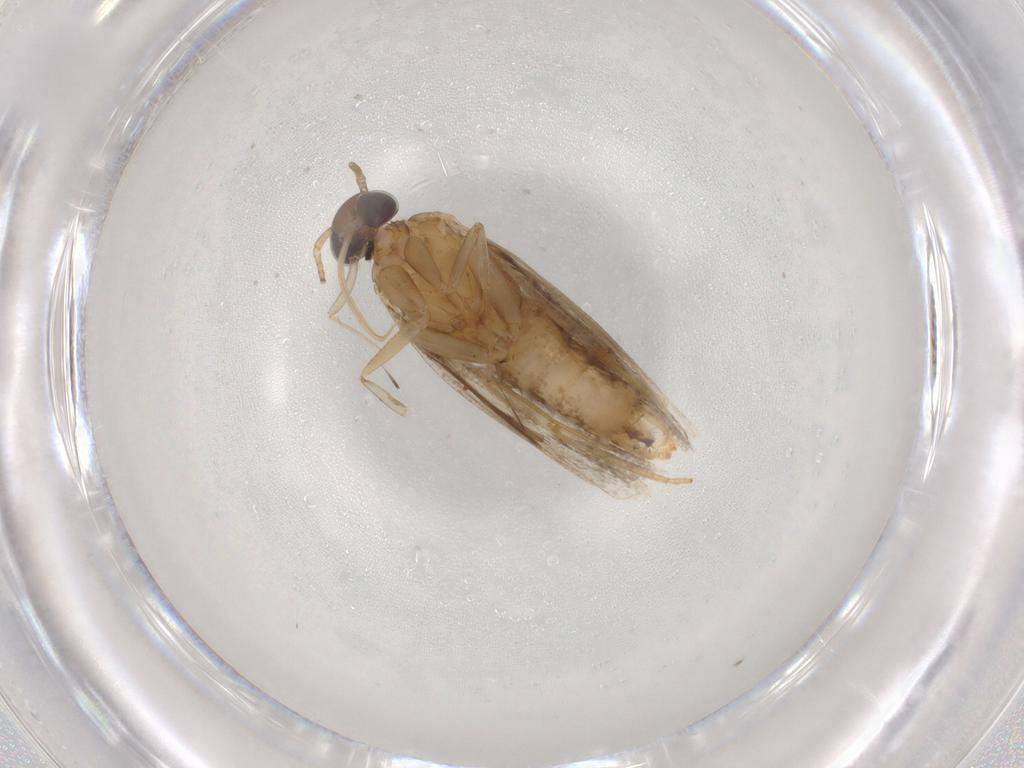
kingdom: Animalia
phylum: Arthropoda
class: Insecta
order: Lepidoptera
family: Gelechiidae
